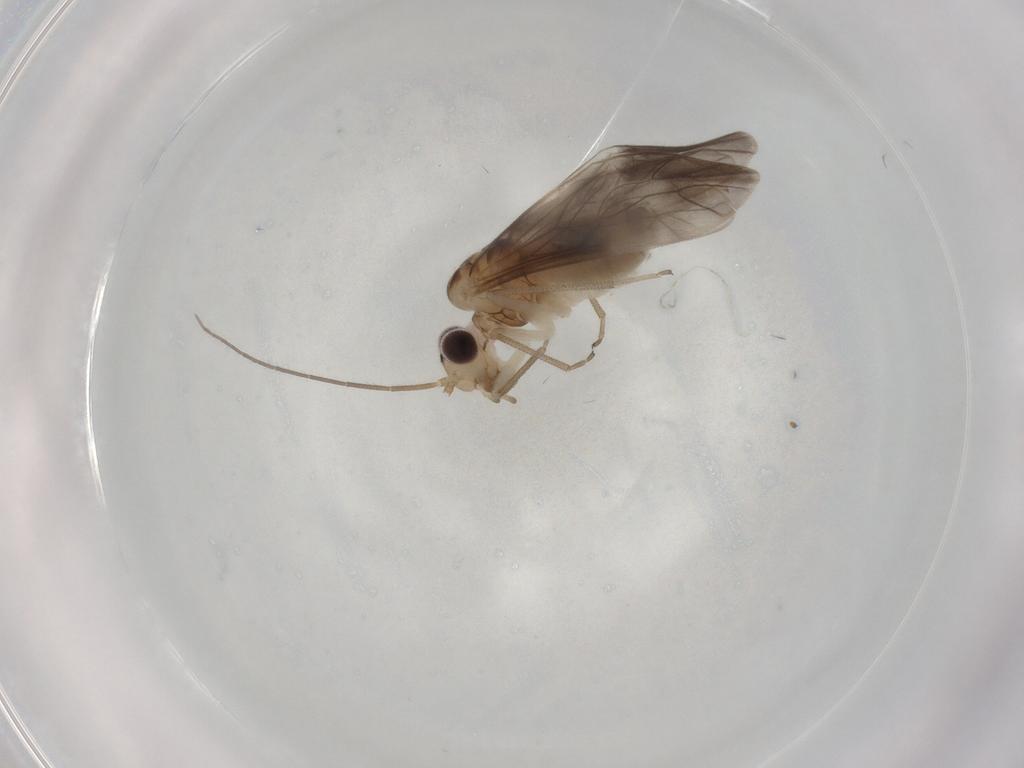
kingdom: Animalia
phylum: Arthropoda
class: Insecta
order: Psocodea
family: Caeciliusidae
